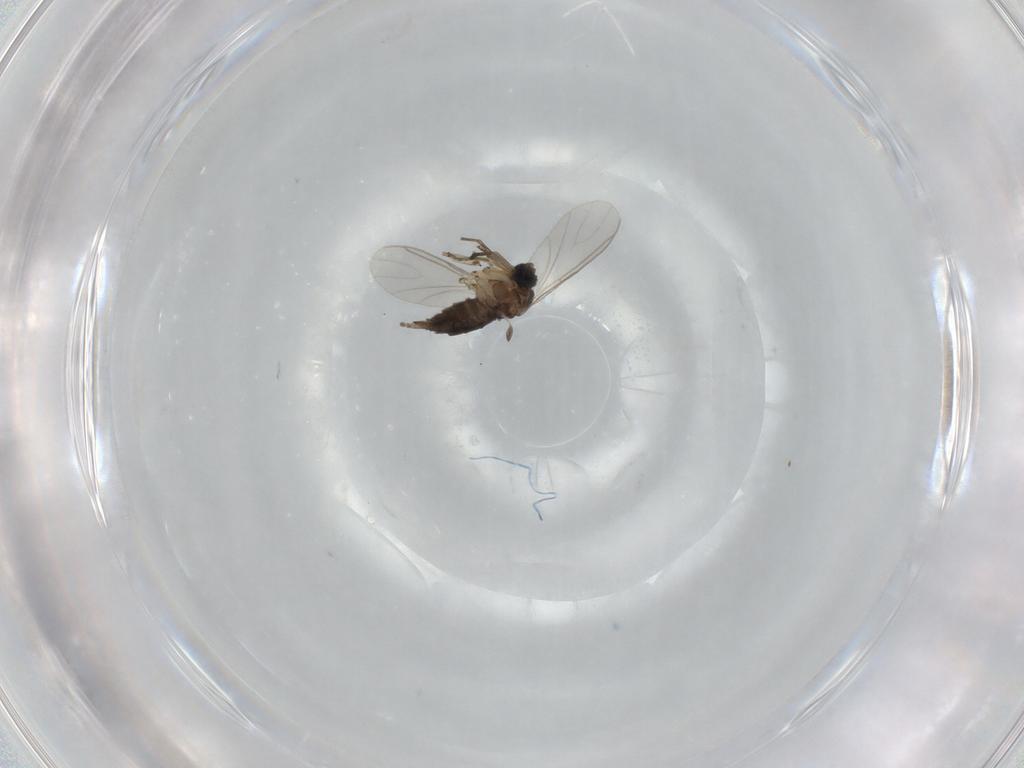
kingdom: Animalia
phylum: Arthropoda
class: Insecta
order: Diptera
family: Sciaridae
